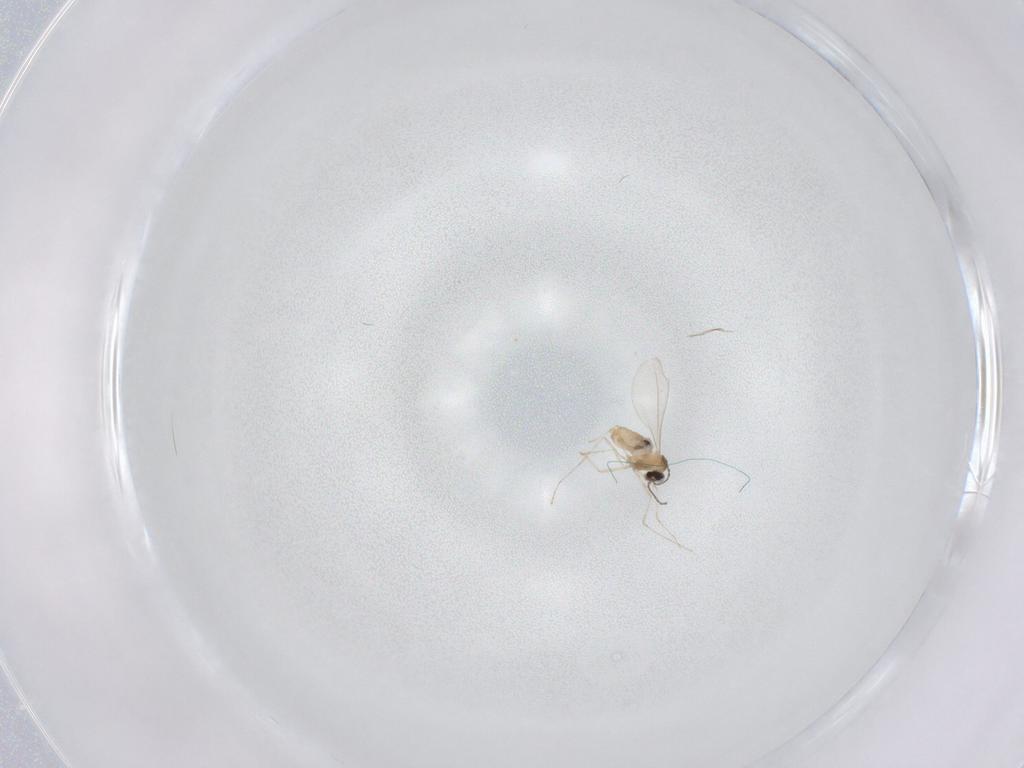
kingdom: Animalia
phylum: Arthropoda
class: Insecta
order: Diptera
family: Cecidomyiidae
